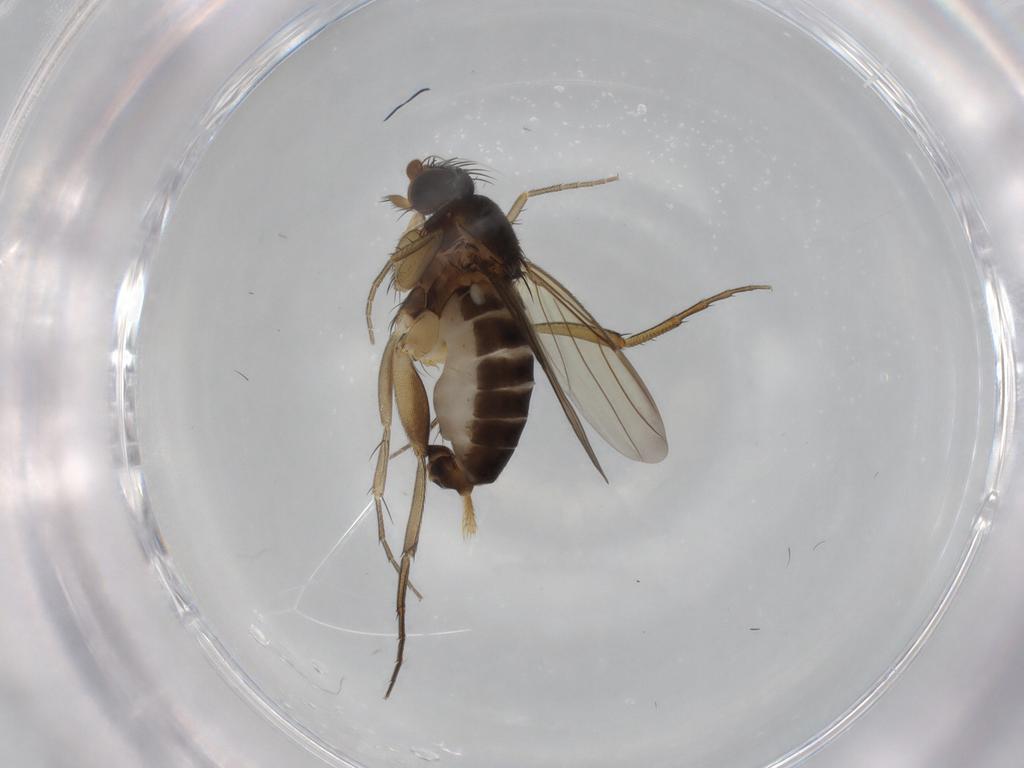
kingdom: Animalia
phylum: Arthropoda
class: Insecta
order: Diptera
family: Phoridae
